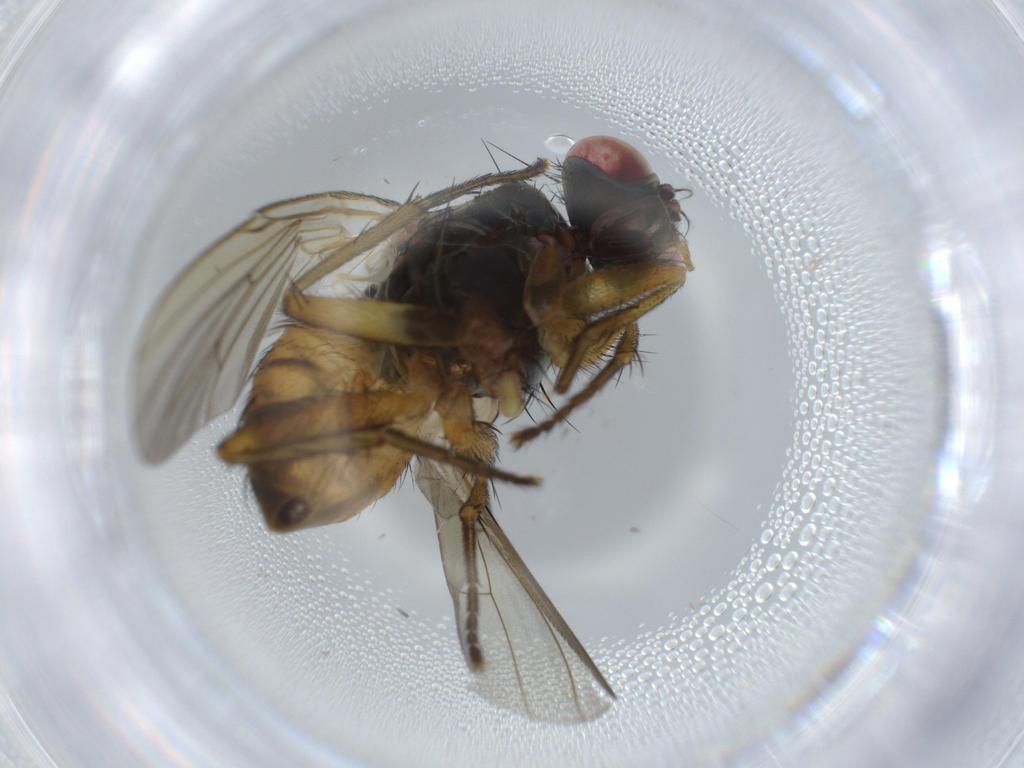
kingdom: Animalia
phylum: Arthropoda
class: Insecta
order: Diptera
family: Muscidae
